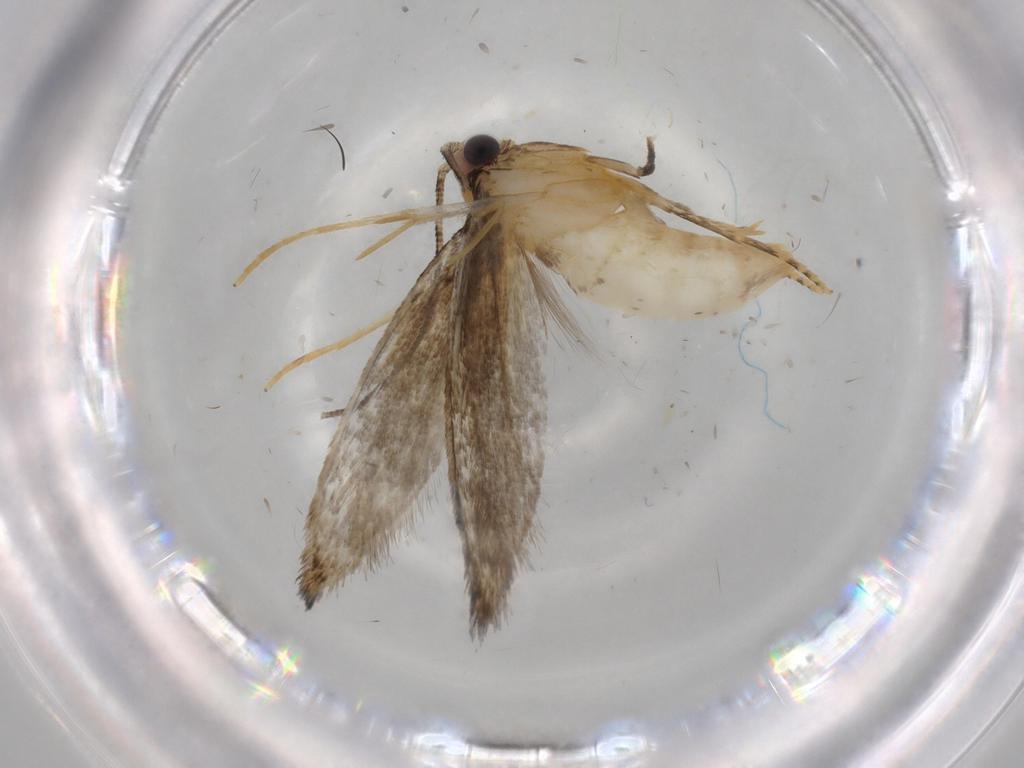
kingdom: Animalia
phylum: Arthropoda
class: Insecta
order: Lepidoptera
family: Tineidae
